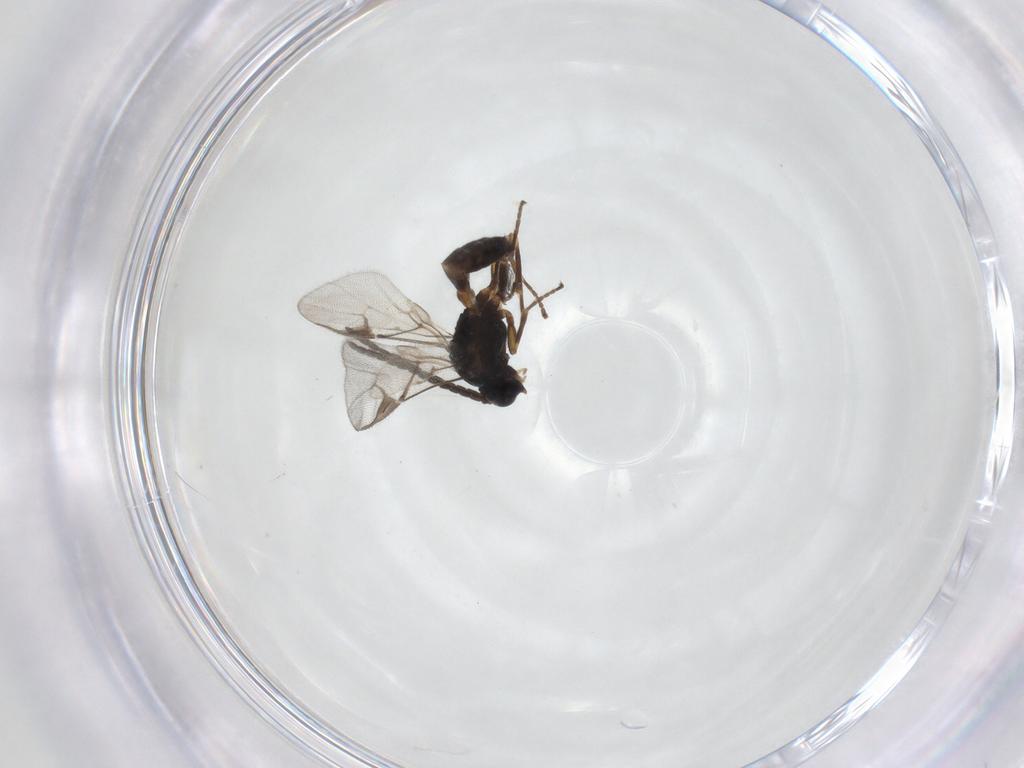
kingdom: Animalia
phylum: Arthropoda
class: Insecta
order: Hymenoptera
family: Braconidae
